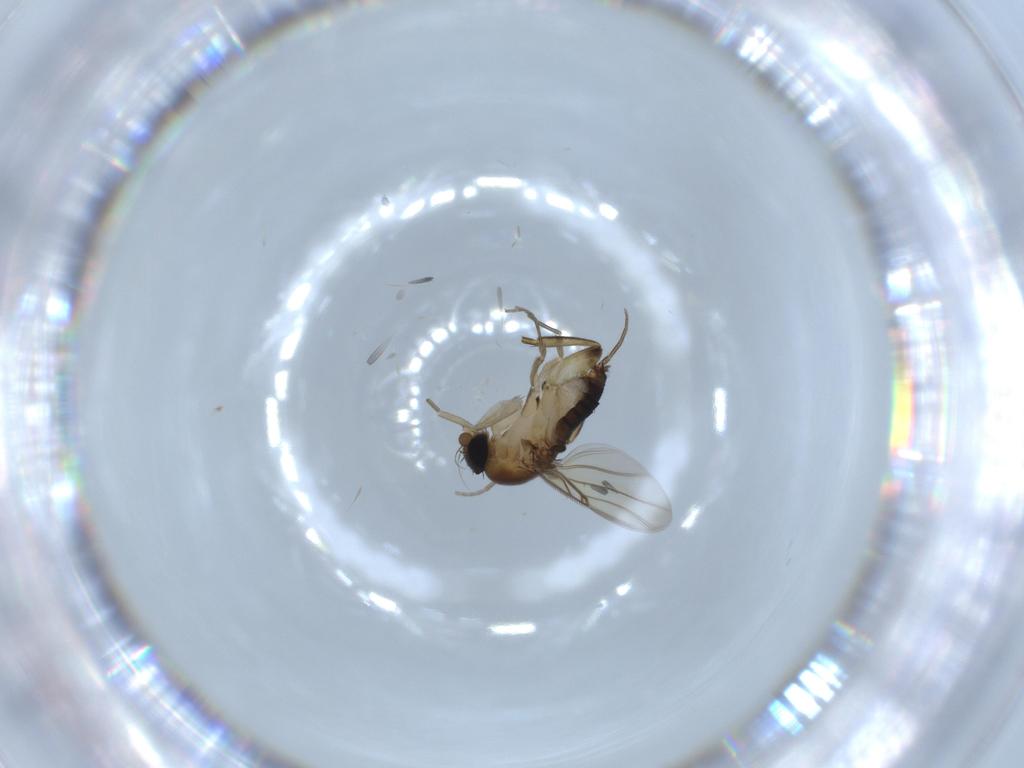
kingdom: Animalia
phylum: Arthropoda
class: Insecta
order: Diptera
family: Phoridae
